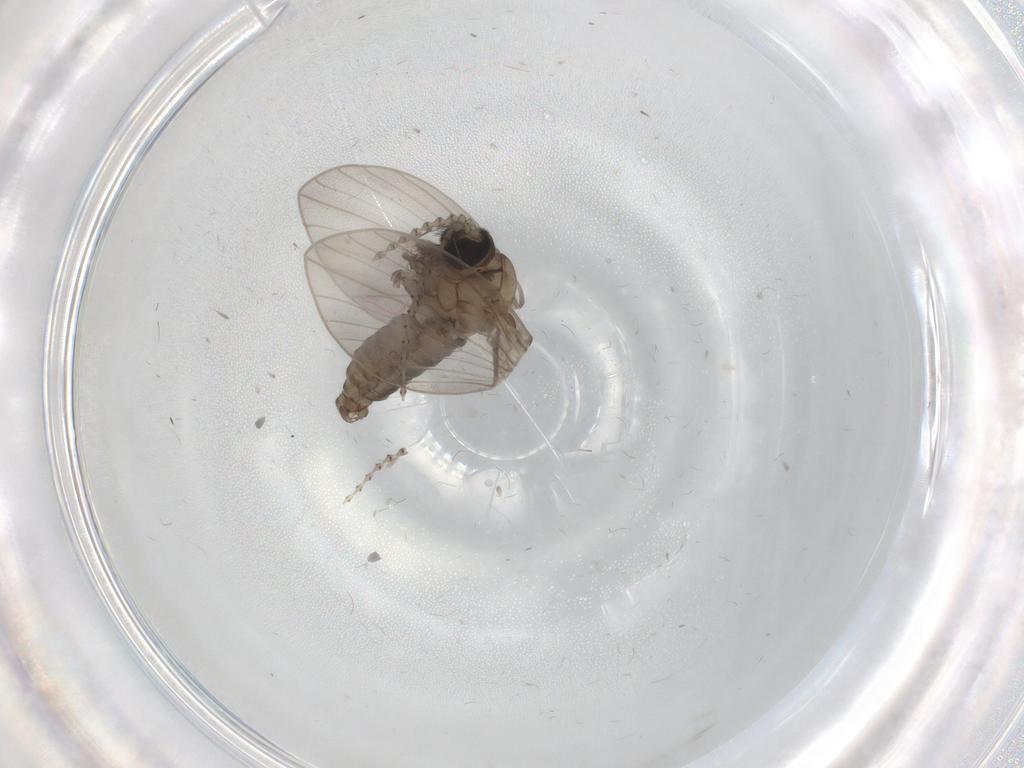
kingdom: Animalia
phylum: Arthropoda
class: Insecta
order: Diptera
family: Psychodidae
